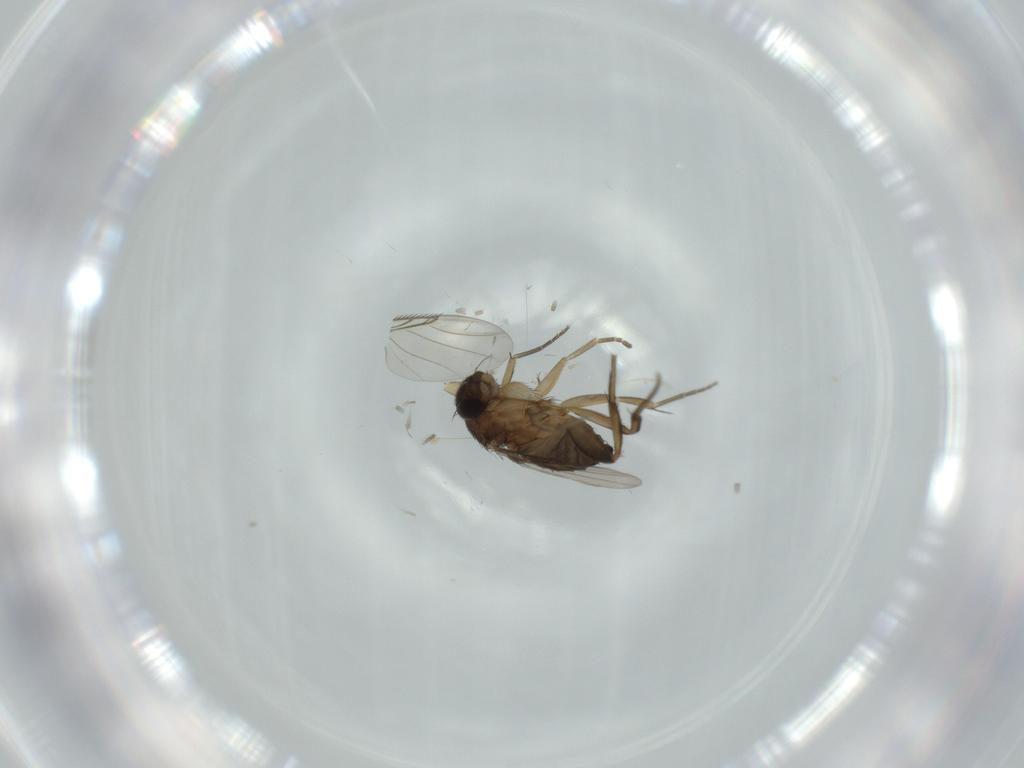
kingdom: Animalia
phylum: Arthropoda
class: Insecta
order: Diptera
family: Phoridae
